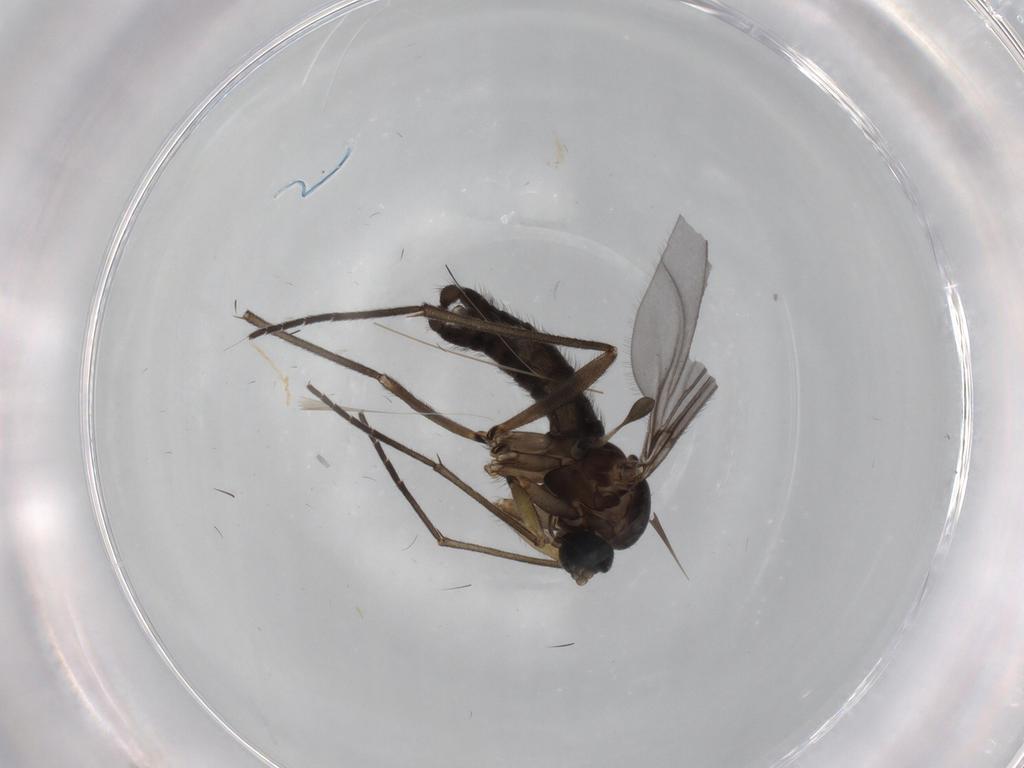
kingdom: Animalia
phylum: Arthropoda
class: Insecta
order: Diptera
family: Sciaridae
